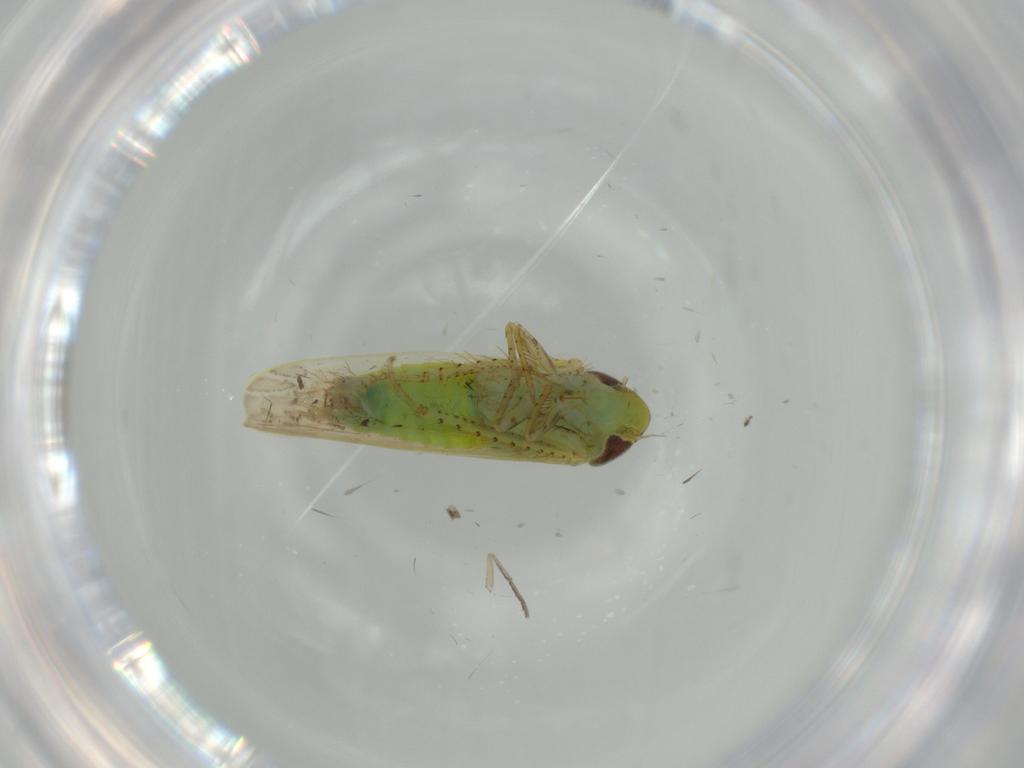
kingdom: Animalia
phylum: Arthropoda
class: Insecta
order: Hemiptera
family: Cicadellidae
